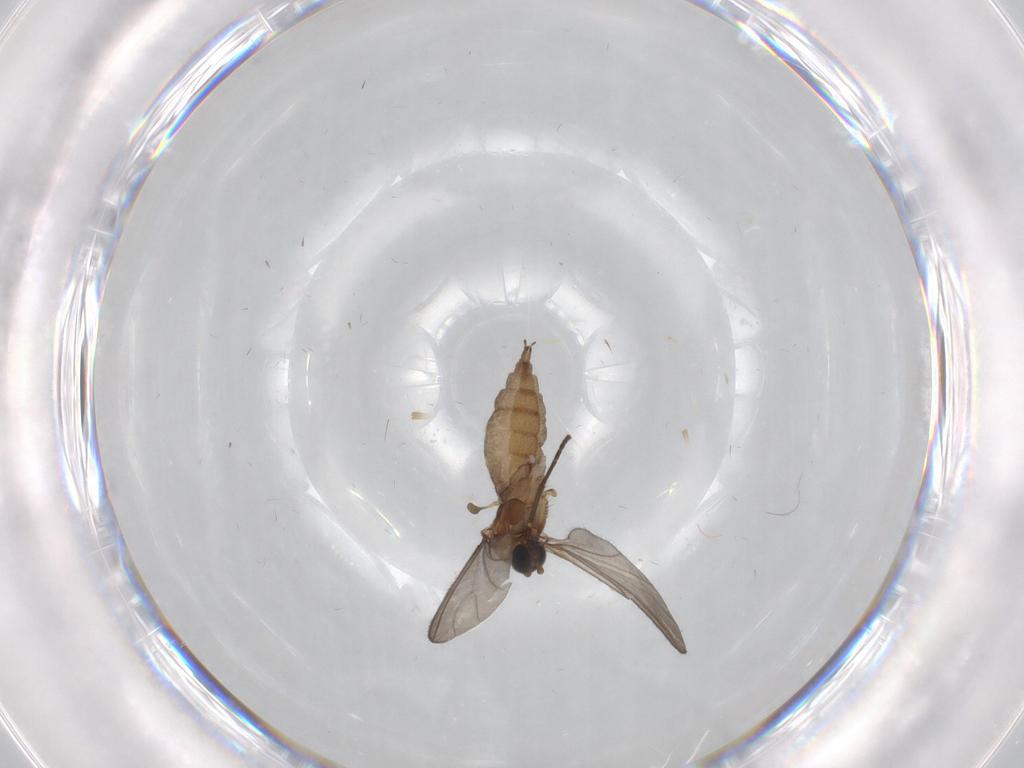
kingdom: Animalia
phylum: Arthropoda
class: Insecta
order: Diptera
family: Sciaridae
